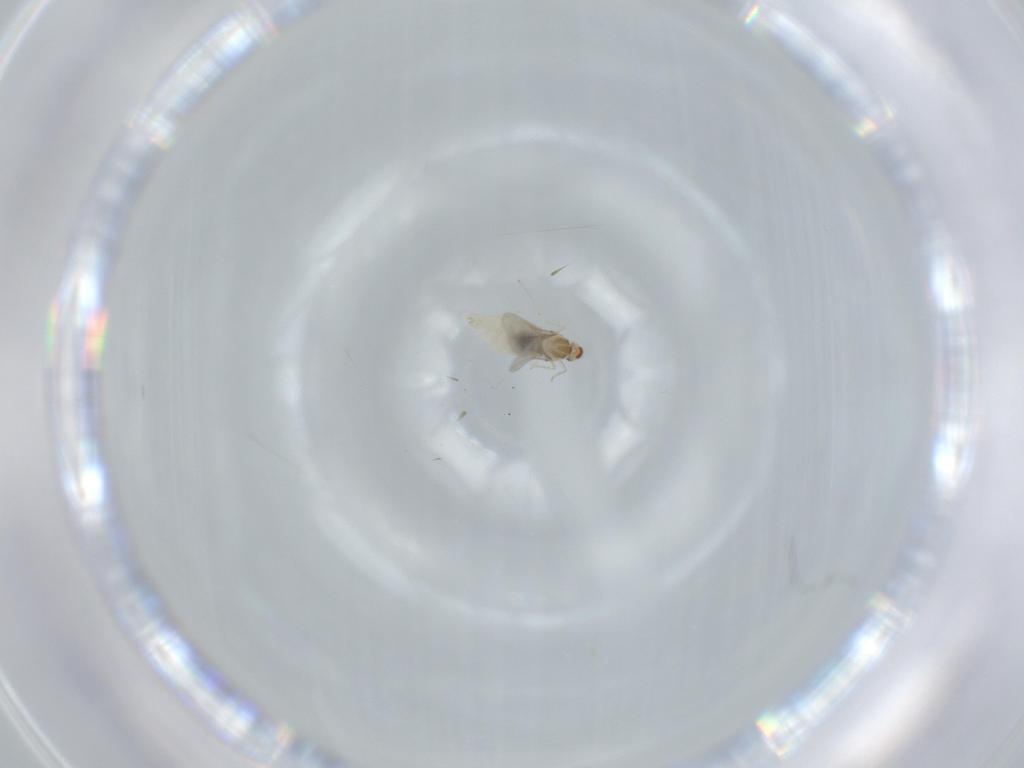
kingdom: Animalia
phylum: Arthropoda
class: Insecta
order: Diptera
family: Cecidomyiidae
